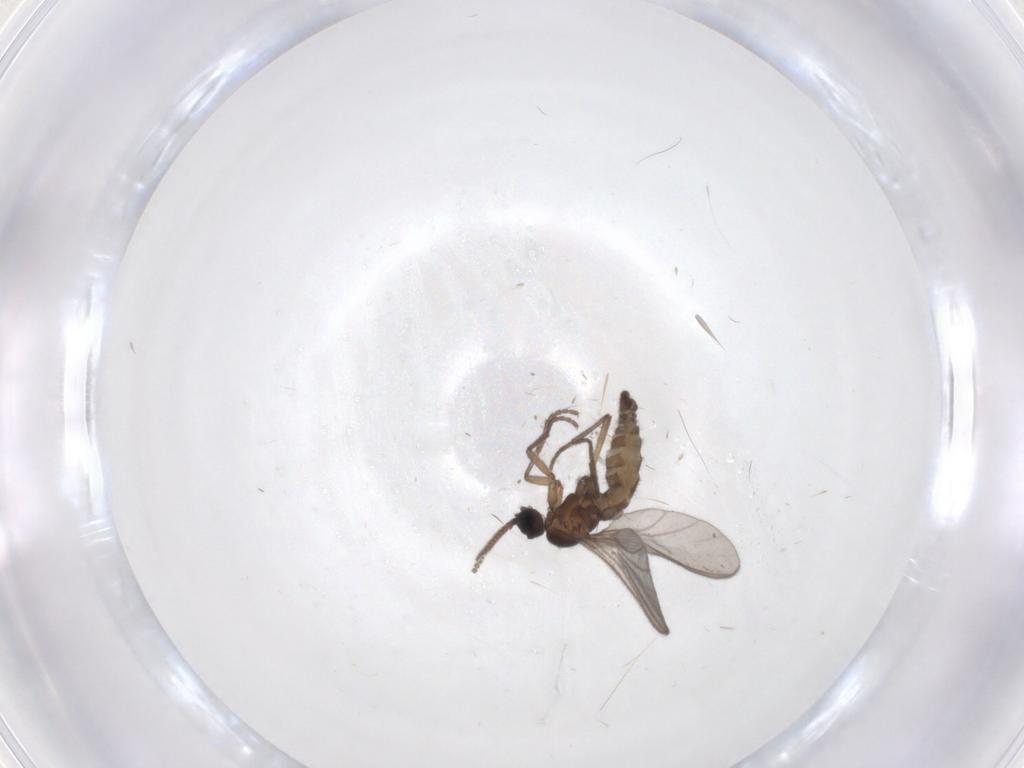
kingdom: Animalia
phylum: Arthropoda
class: Insecta
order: Diptera
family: Sciaridae
